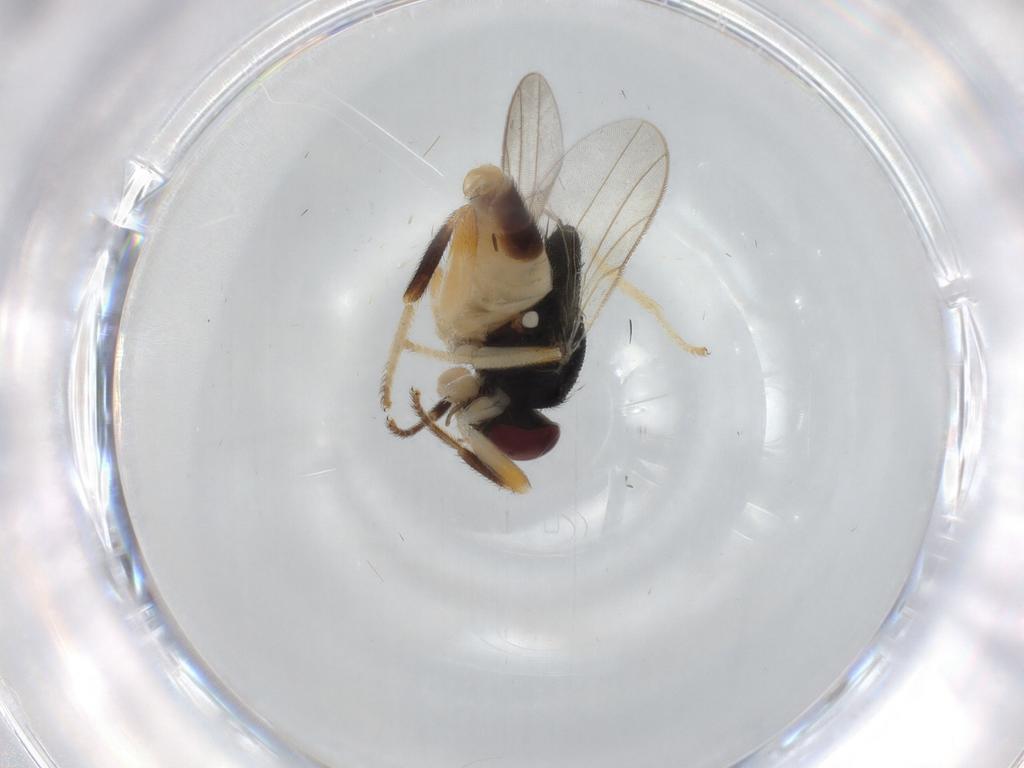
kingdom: Animalia
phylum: Arthropoda
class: Insecta
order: Diptera
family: Chloropidae
